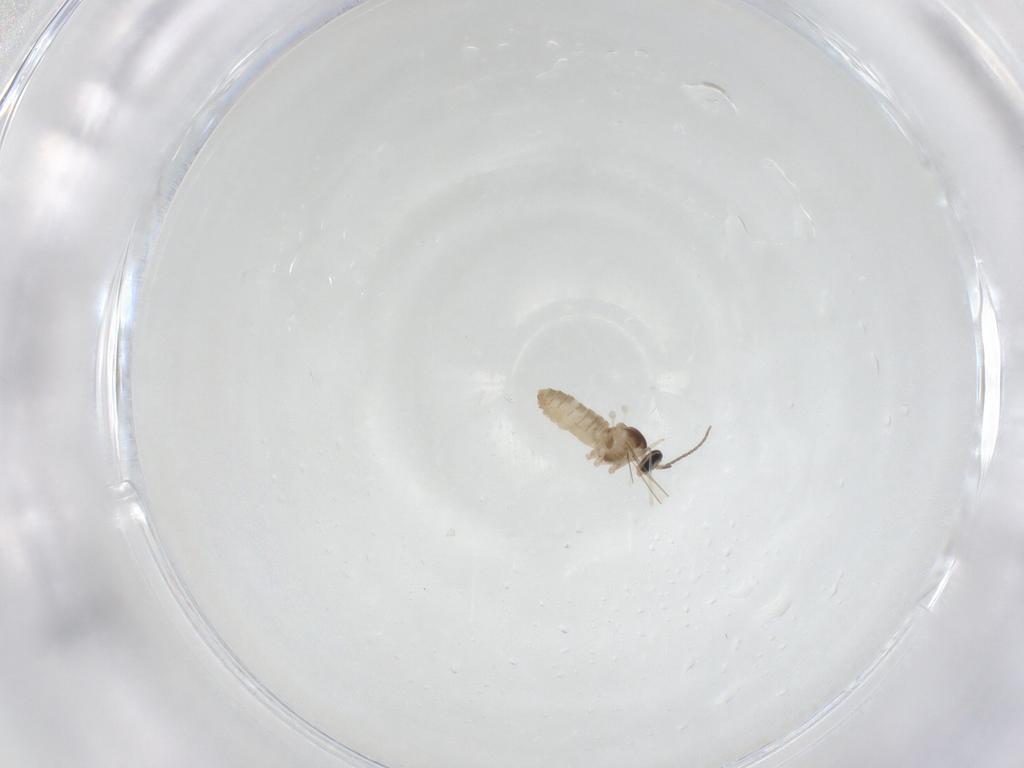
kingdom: Animalia
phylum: Arthropoda
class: Insecta
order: Diptera
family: Cecidomyiidae
